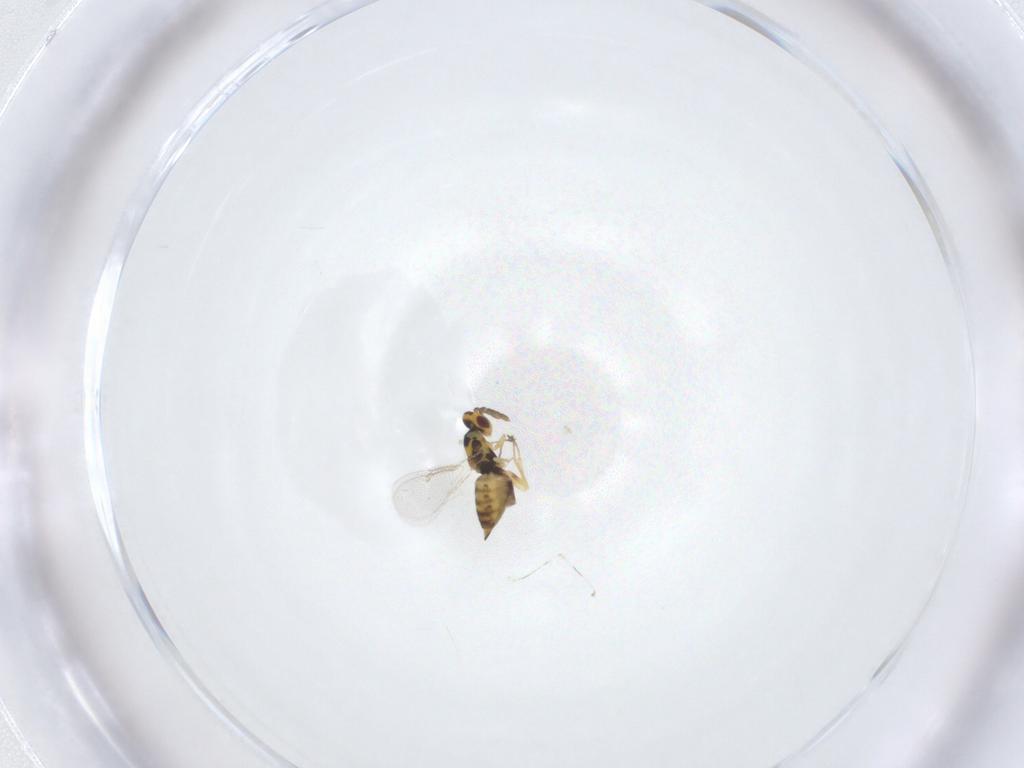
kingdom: Animalia
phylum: Arthropoda
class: Insecta
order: Hymenoptera
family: Eulophidae
